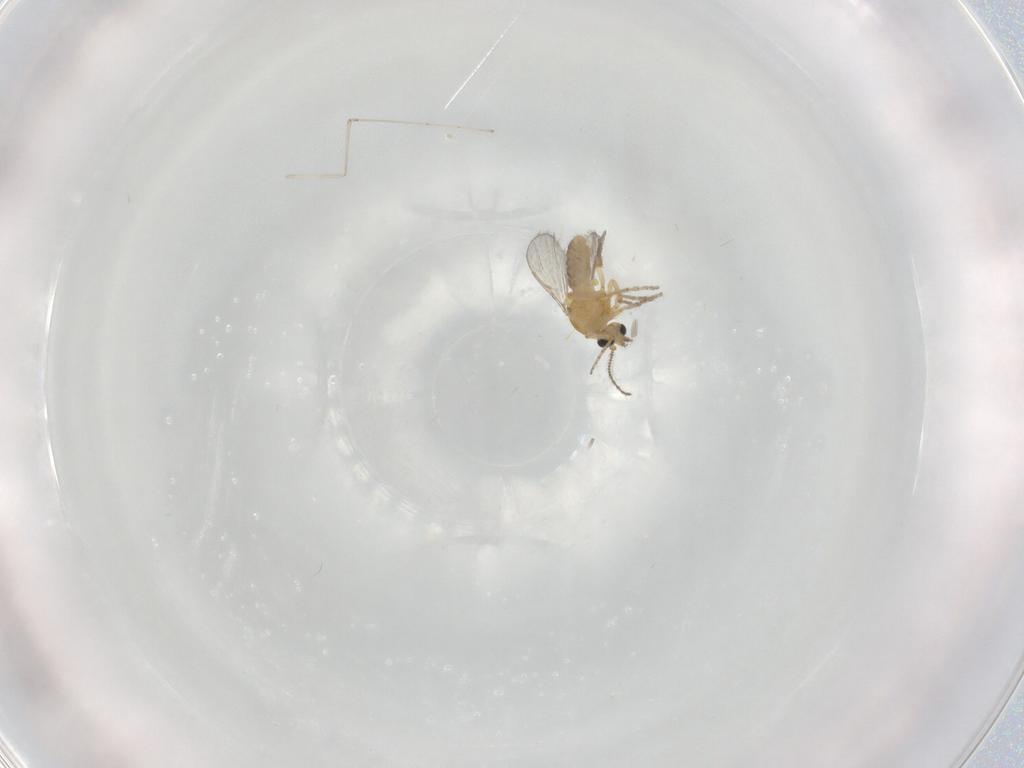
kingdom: Animalia
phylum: Arthropoda
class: Insecta
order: Diptera
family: Ceratopogonidae
